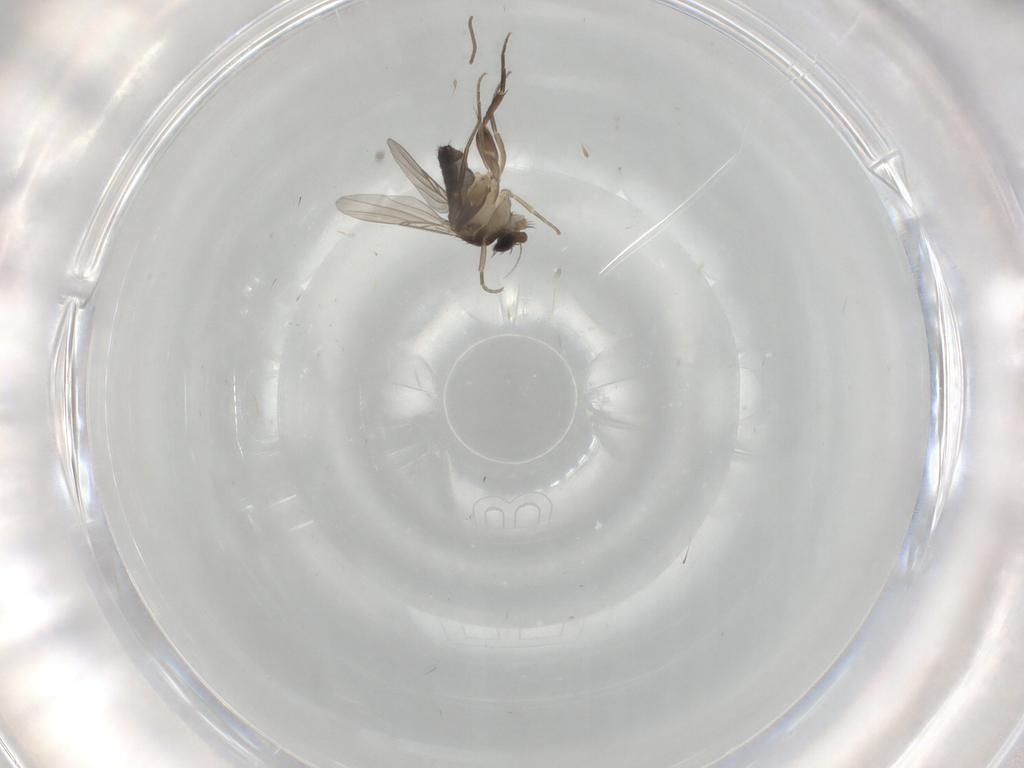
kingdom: Animalia
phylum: Arthropoda
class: Insecta
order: Diptera
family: Phoridae
